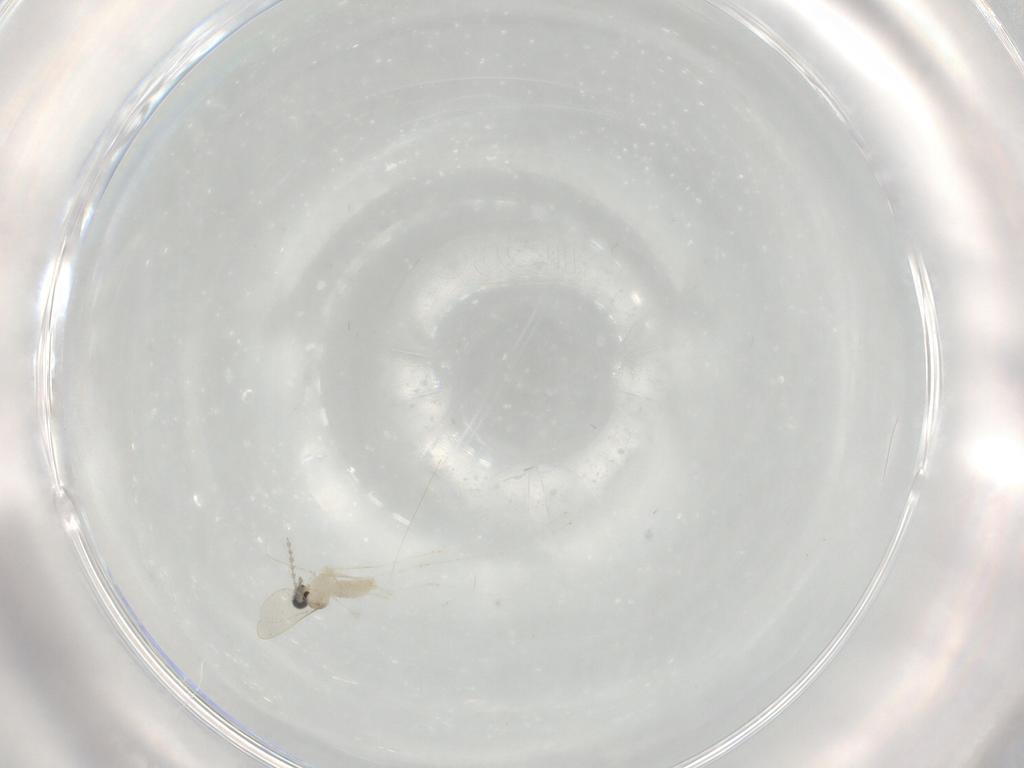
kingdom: Animalia
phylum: Arthropoda
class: Insecta
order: Diptera
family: Cecidomyiidae
